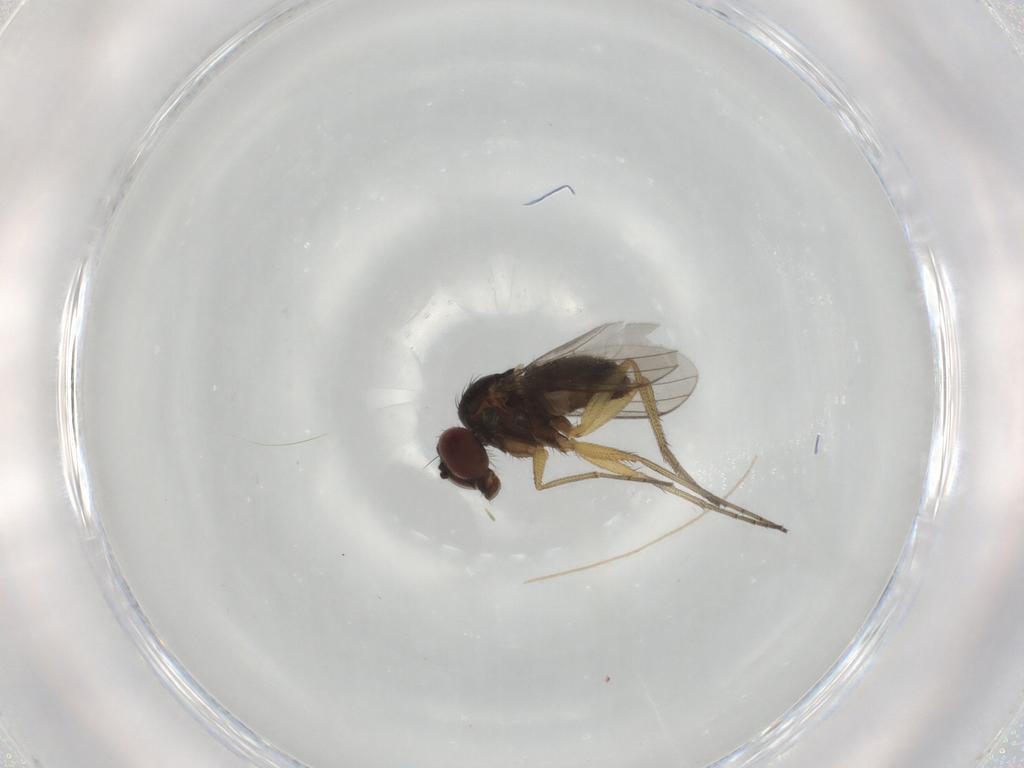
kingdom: Animalia
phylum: Arthropoda
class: Insecta
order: Diptera
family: Dolichopodidae
